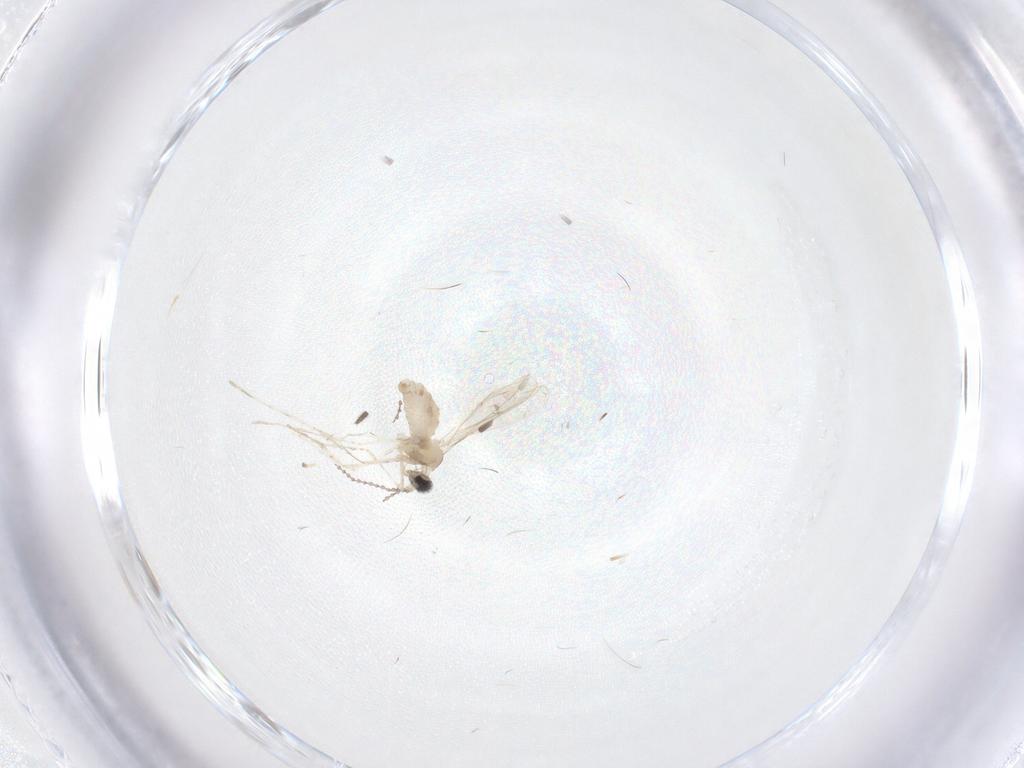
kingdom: Animalia
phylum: Arthropoda
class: Insecta
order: Diptera
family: Sciaridae
